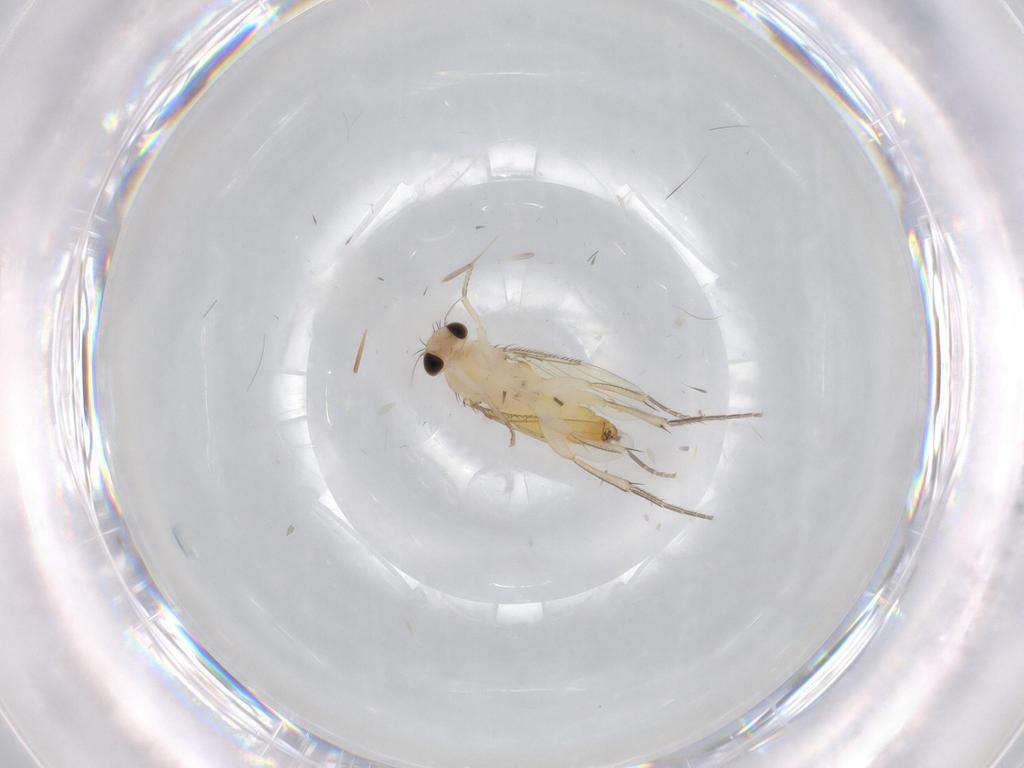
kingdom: Animalia
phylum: Arthropoda
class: Insecta
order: Diptera
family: Phoridae
